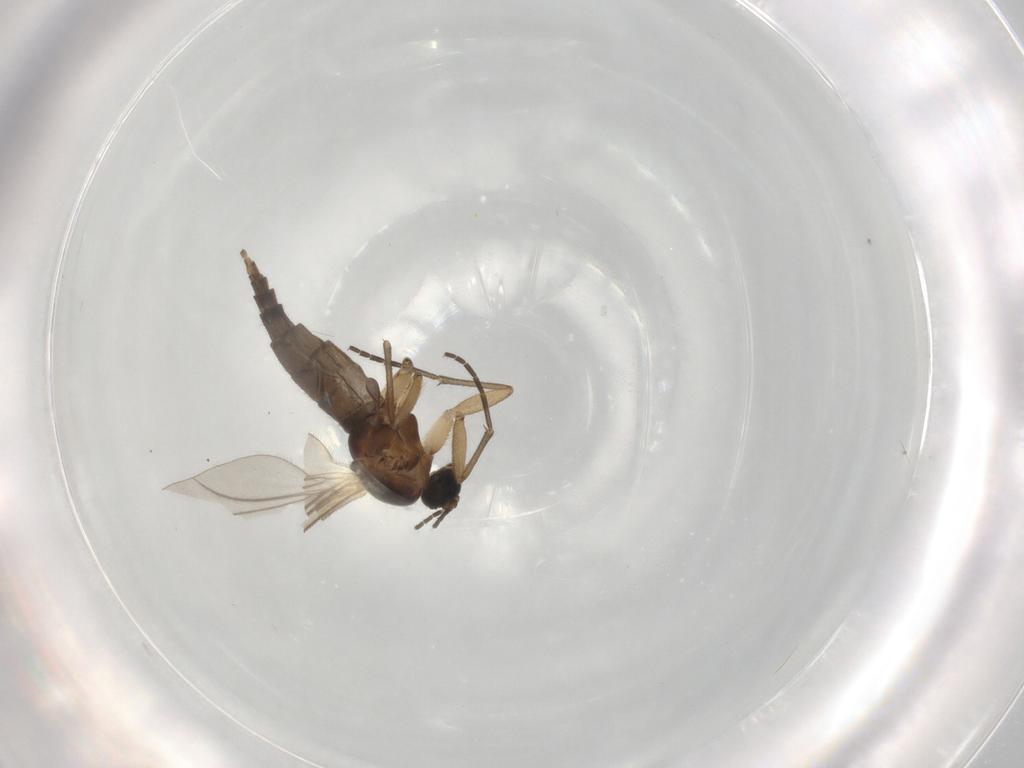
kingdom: Animalia
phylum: Arthropoda
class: Insecta
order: Diptera
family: Sciaridae
